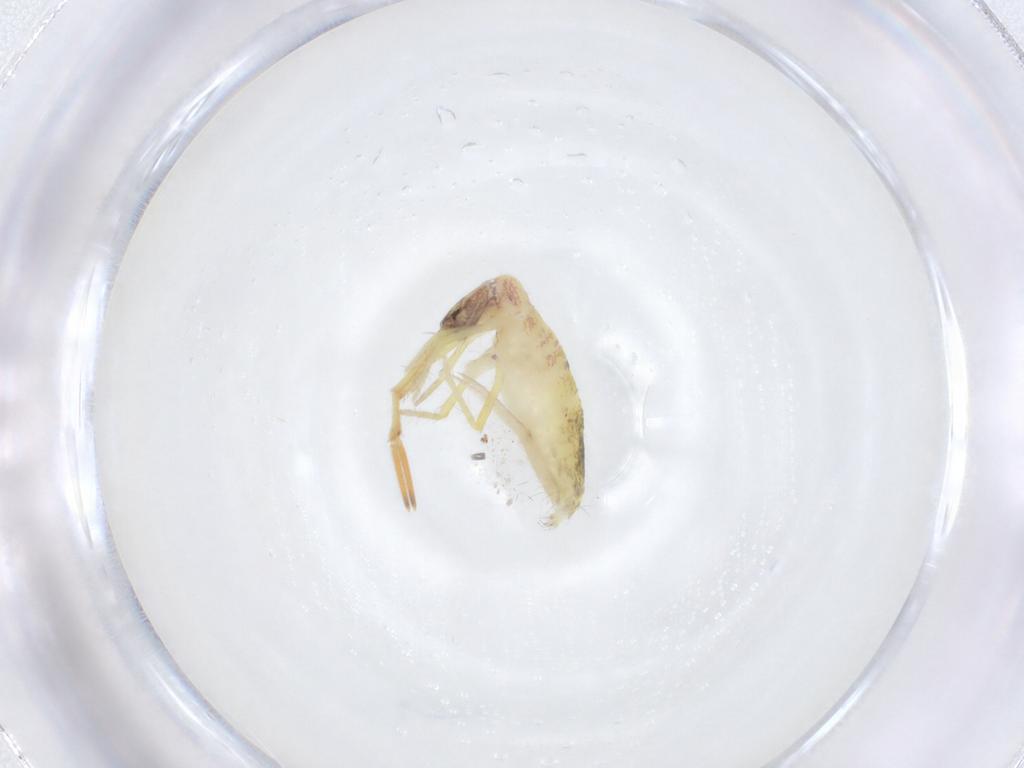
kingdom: Animalia
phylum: Arthropoda
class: Collembola
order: Entomobryomorpha
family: Entomobryidae
